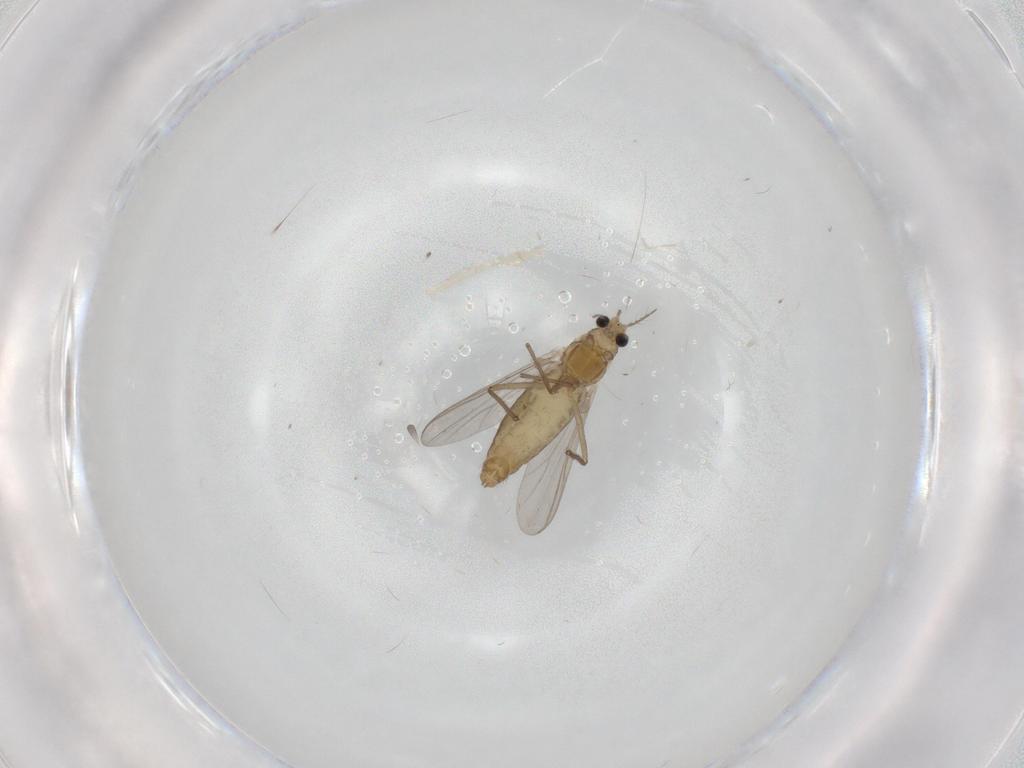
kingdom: Animalia
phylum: Arthropoda
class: Insecta
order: Diptera
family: Chironomidae
